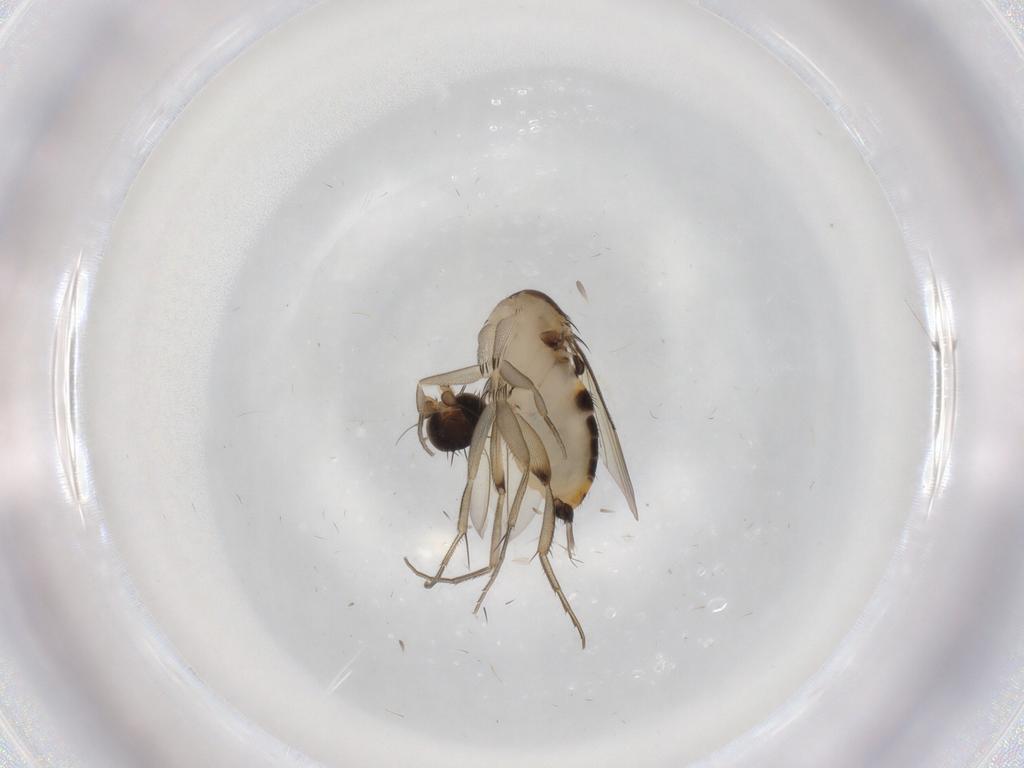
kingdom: Animalia
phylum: Arthropoda
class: Insecta
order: Diptera
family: Phoridae
